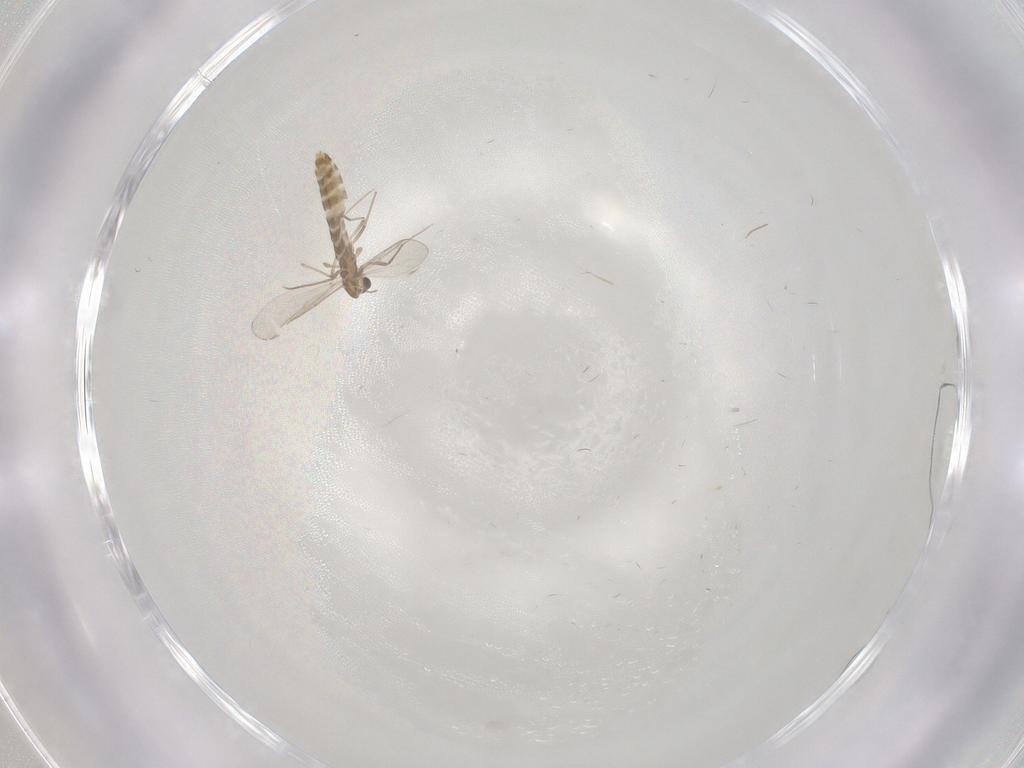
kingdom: Animalia
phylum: Arthropoda
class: Insecta
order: Diptera
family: Chironomidae
